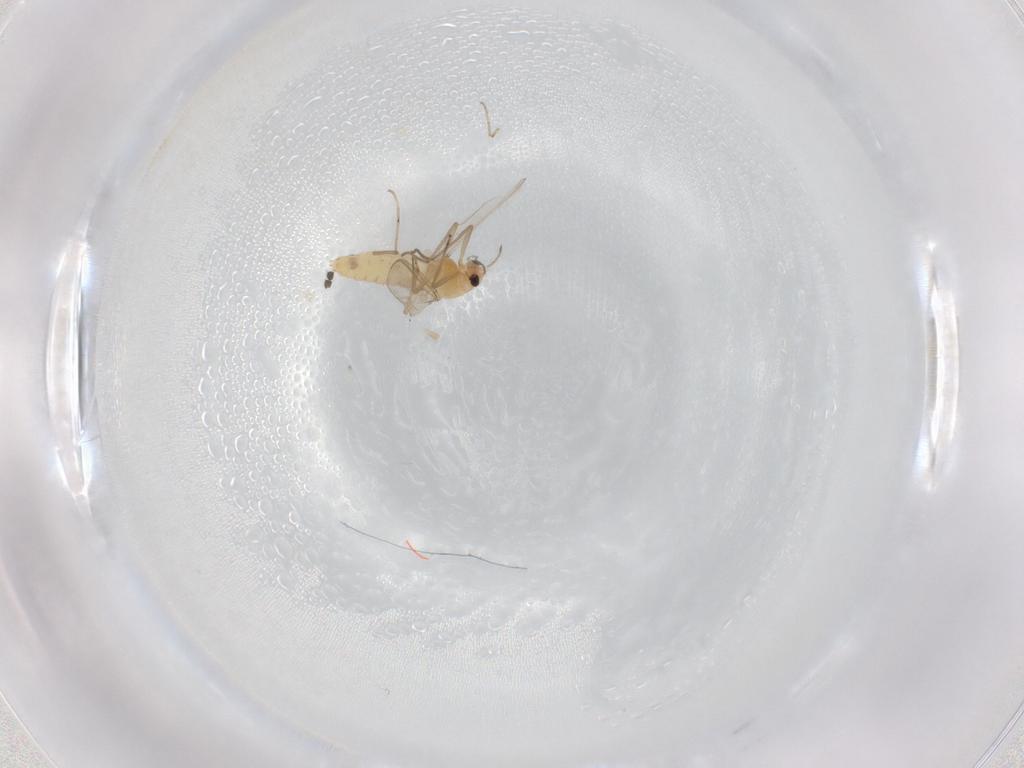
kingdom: Animalia
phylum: Arthropoda
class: Insecta
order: Diptera
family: Chironomidae
